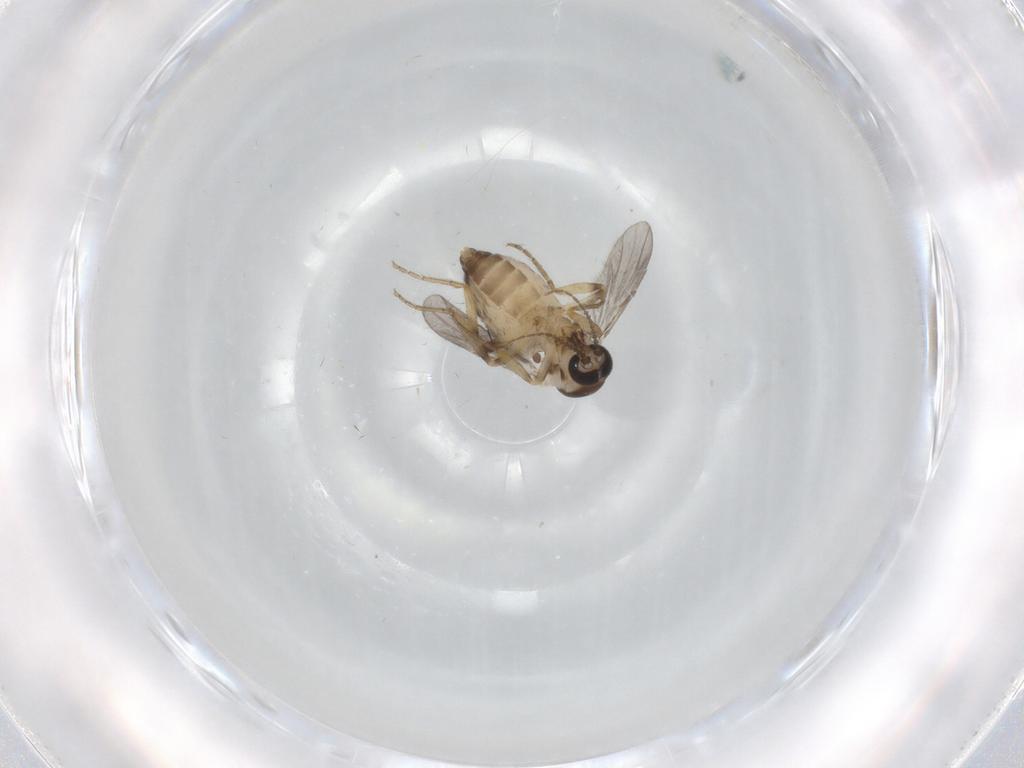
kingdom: Animalia
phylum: Arthropoda
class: Insecta
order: Diptera
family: Ceratopogonidae
